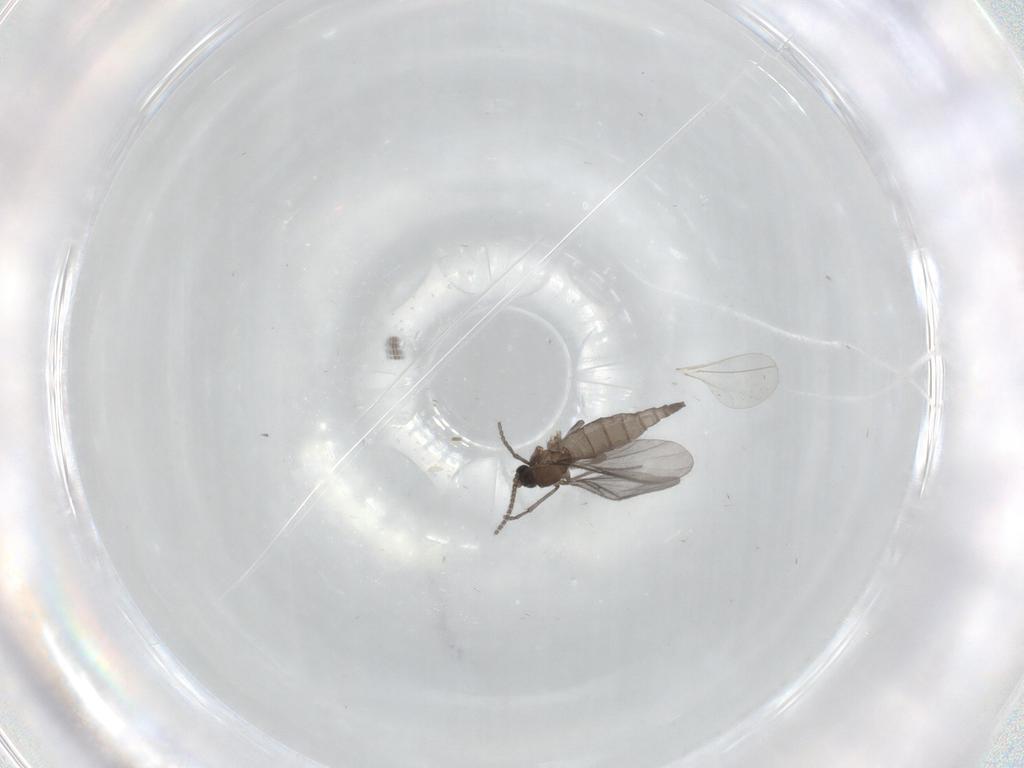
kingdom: Animalia
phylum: Arthropoda
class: Insecta
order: Diptera
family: Sciaridae
